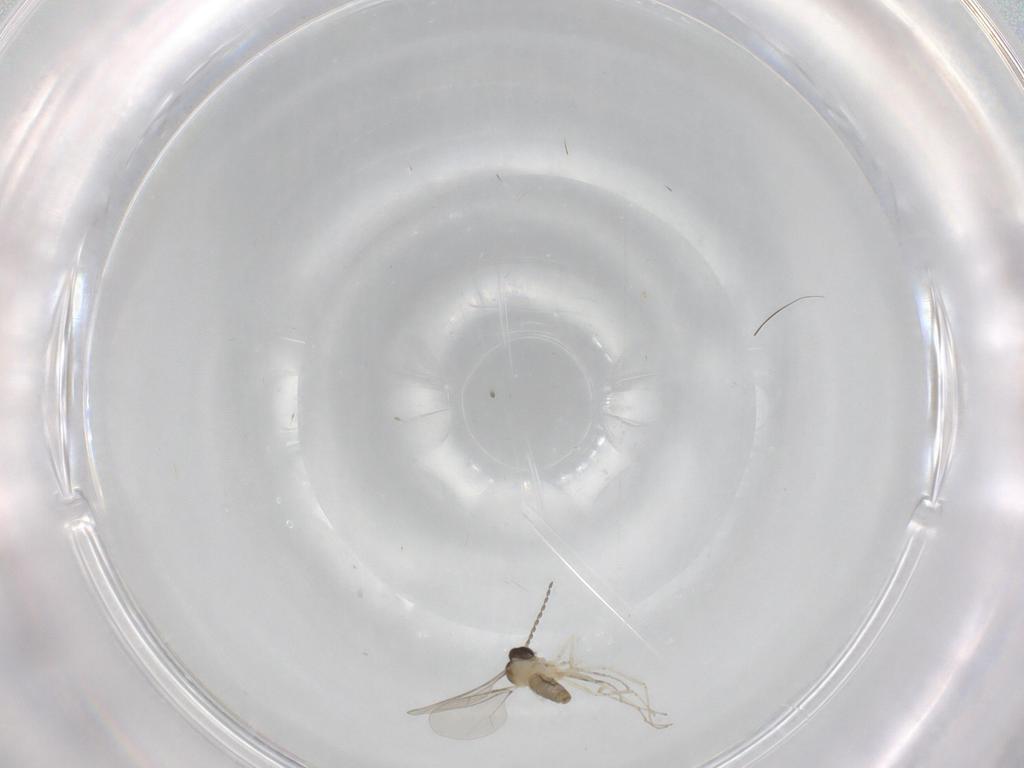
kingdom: Animalia
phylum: Arthropoda
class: Insecta
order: Diptera
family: Cecidomyiidae
